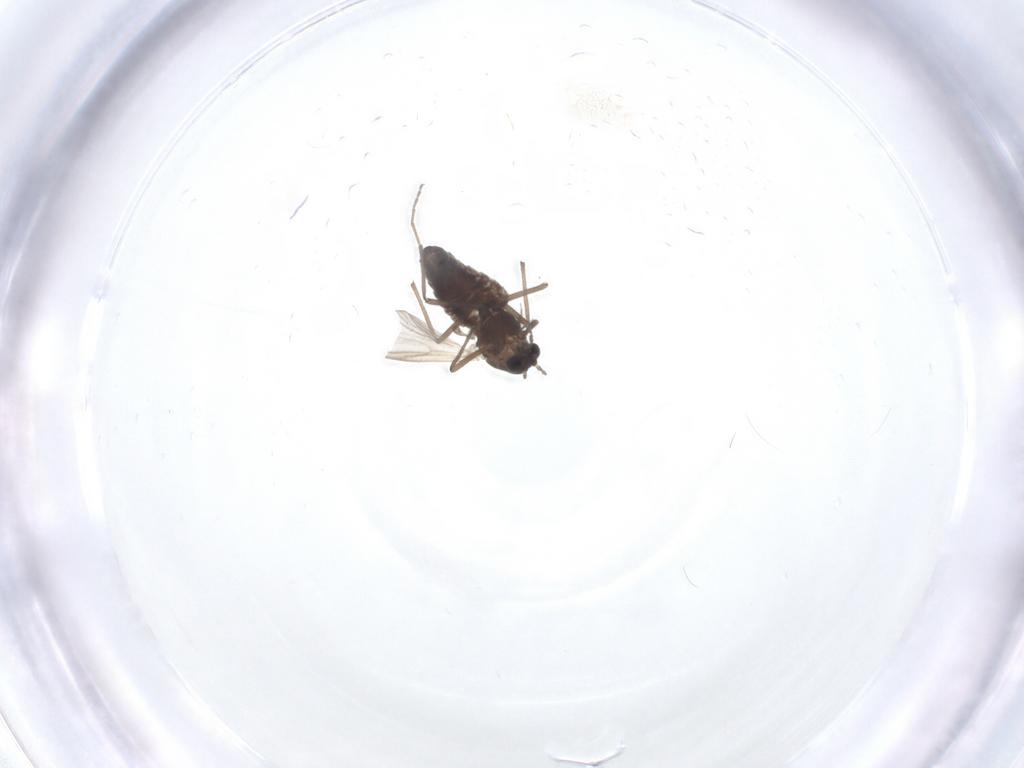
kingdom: Animalia
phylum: Arthropoda
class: Insecta
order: Diptera
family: Chironomidae
